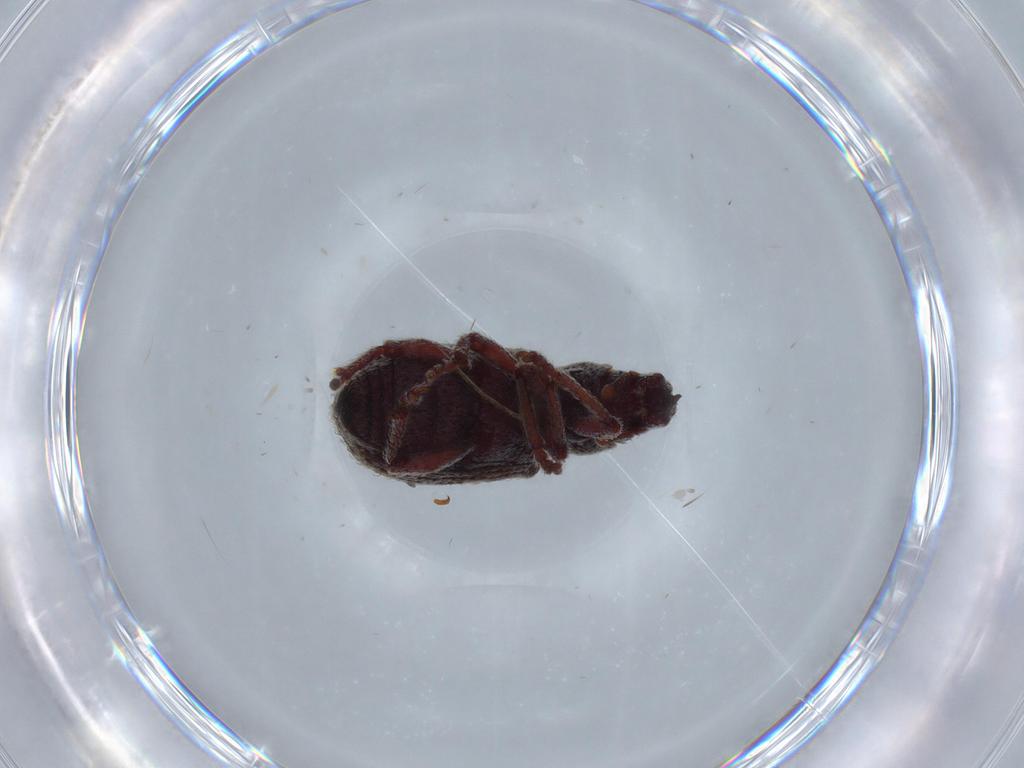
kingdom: Animalia
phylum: Arthropoda
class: Insecta
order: Coleoptera
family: Curculionidae
